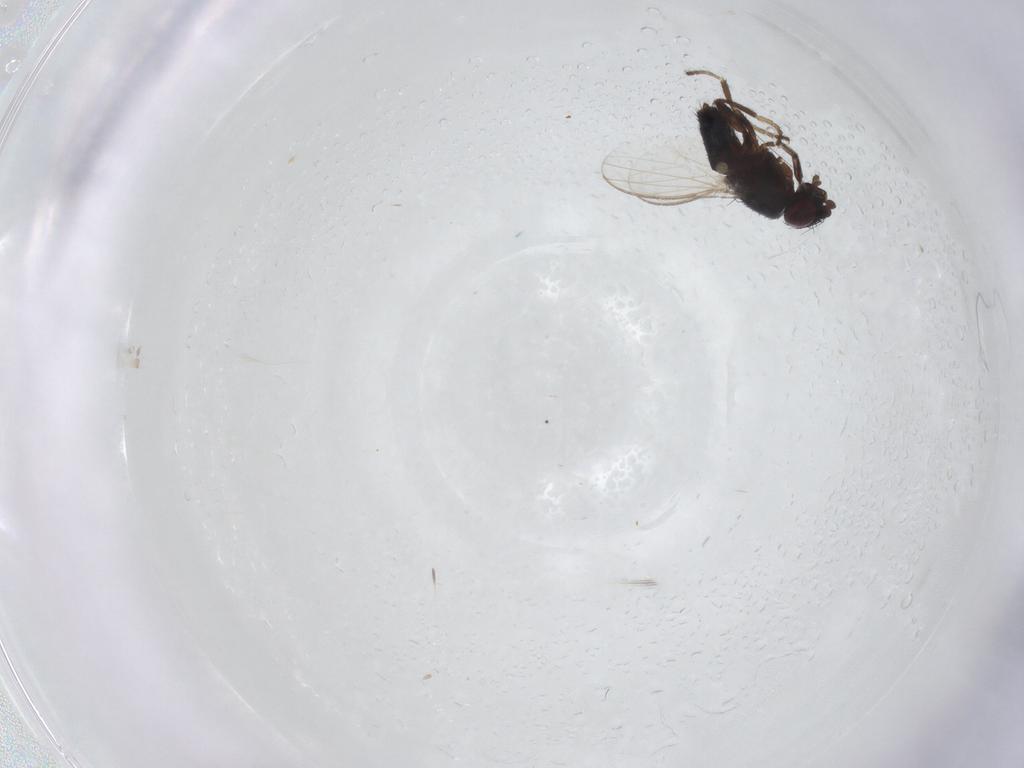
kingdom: Animalia
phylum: Arthropoda
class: Insecta
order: Diptera
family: Milichiidae
